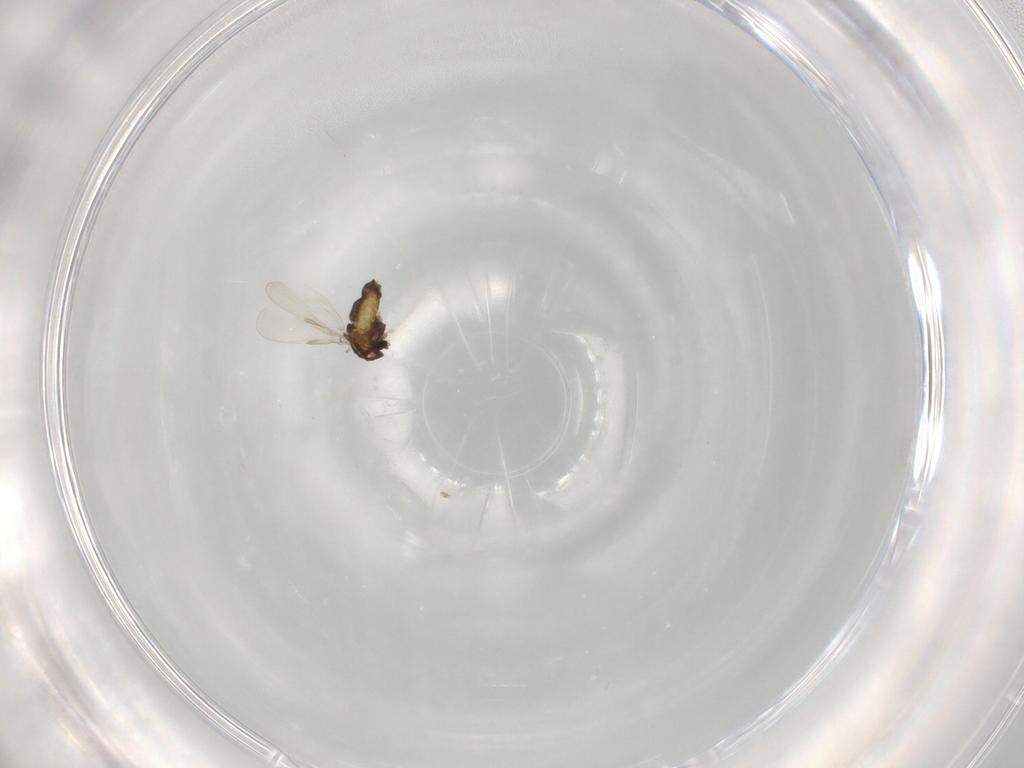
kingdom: Animalia
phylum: Arthropoda
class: Insecta
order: Diptera
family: Chironomidae
